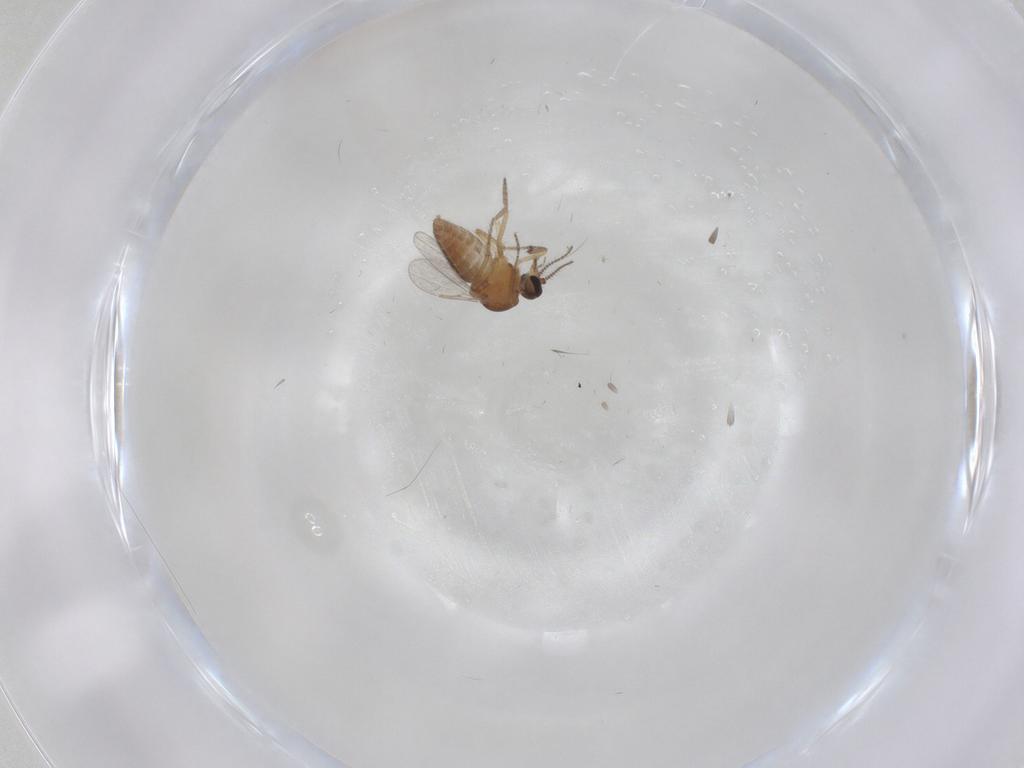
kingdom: Animalia
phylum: Arthropoda
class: Insecta
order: Diptera
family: Ceratopogonidae
